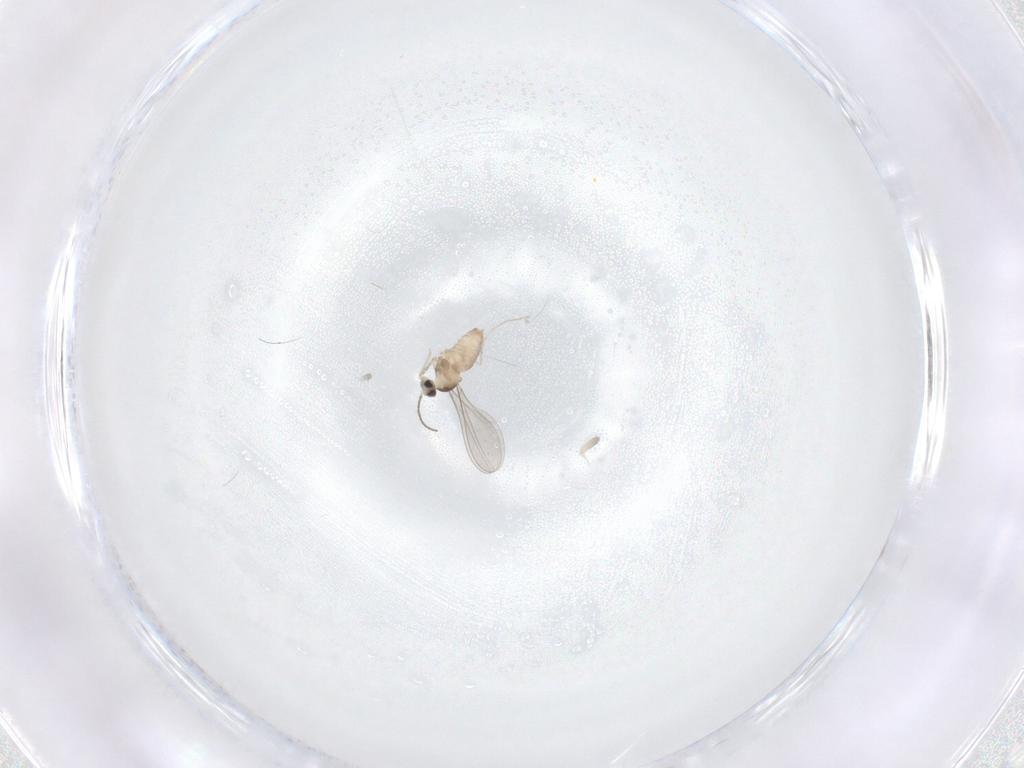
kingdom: Animalia
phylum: Arthropoda
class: Insecta
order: Diptera
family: Cecidomyiidae
